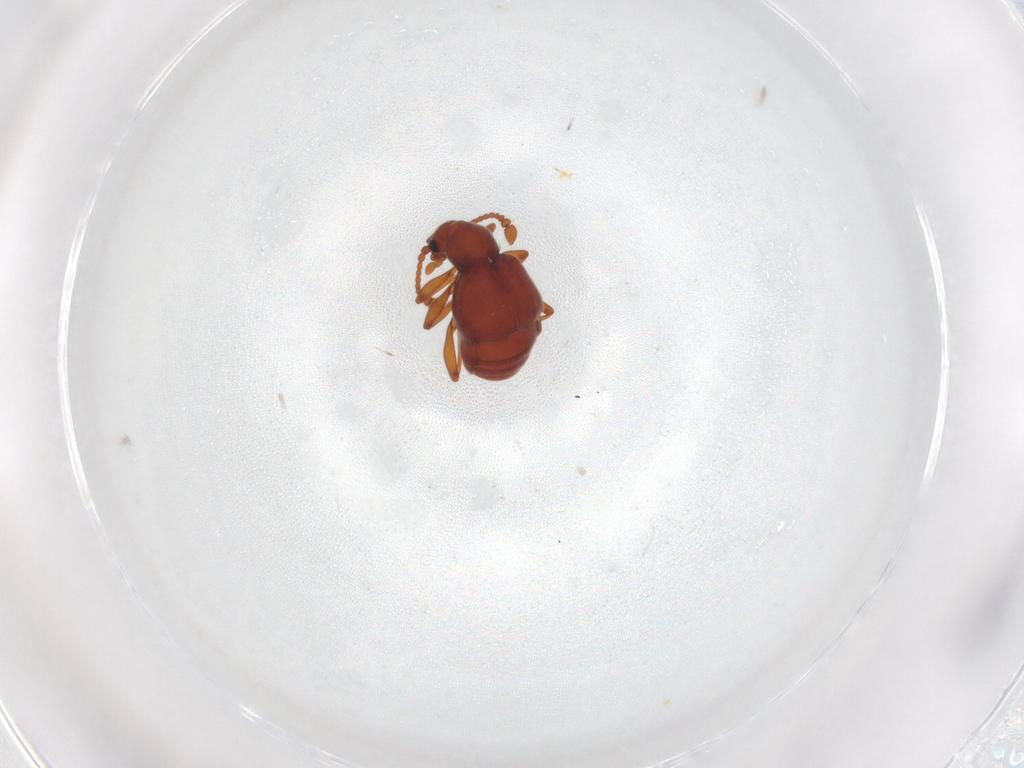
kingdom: Animalia
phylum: Arthropoda
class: Insecta
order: Coleoptera
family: Staphylinidae
